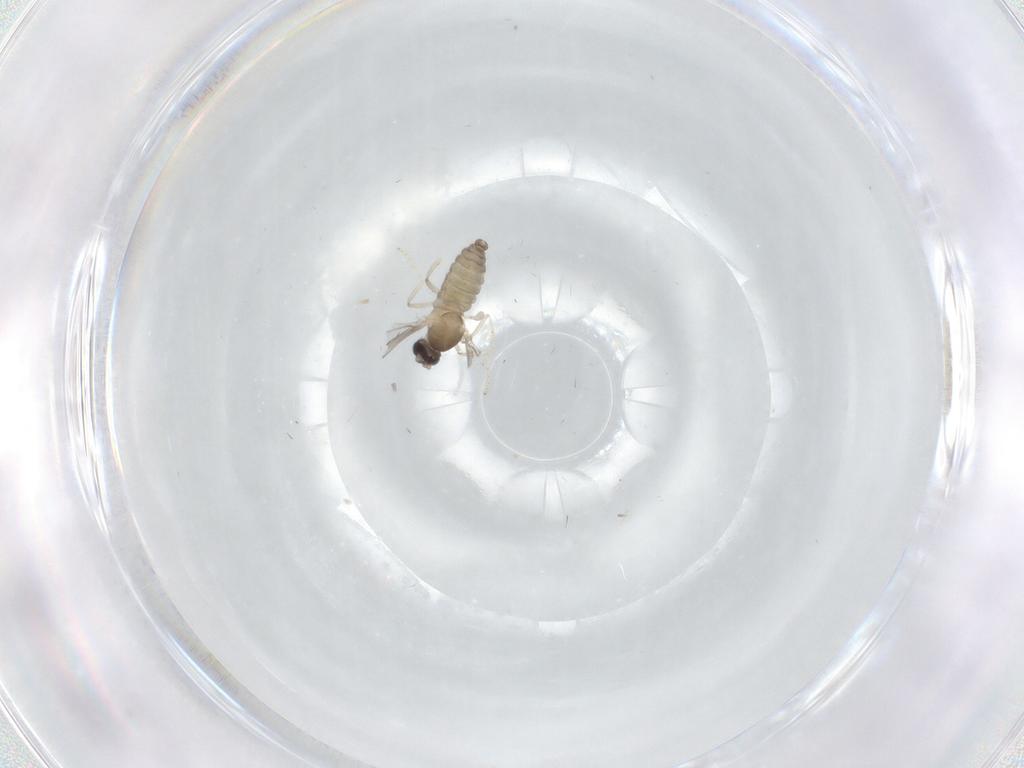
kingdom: Animalia
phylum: Arthropoda
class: Insecta
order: Diptera
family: Cecidomyiidae
